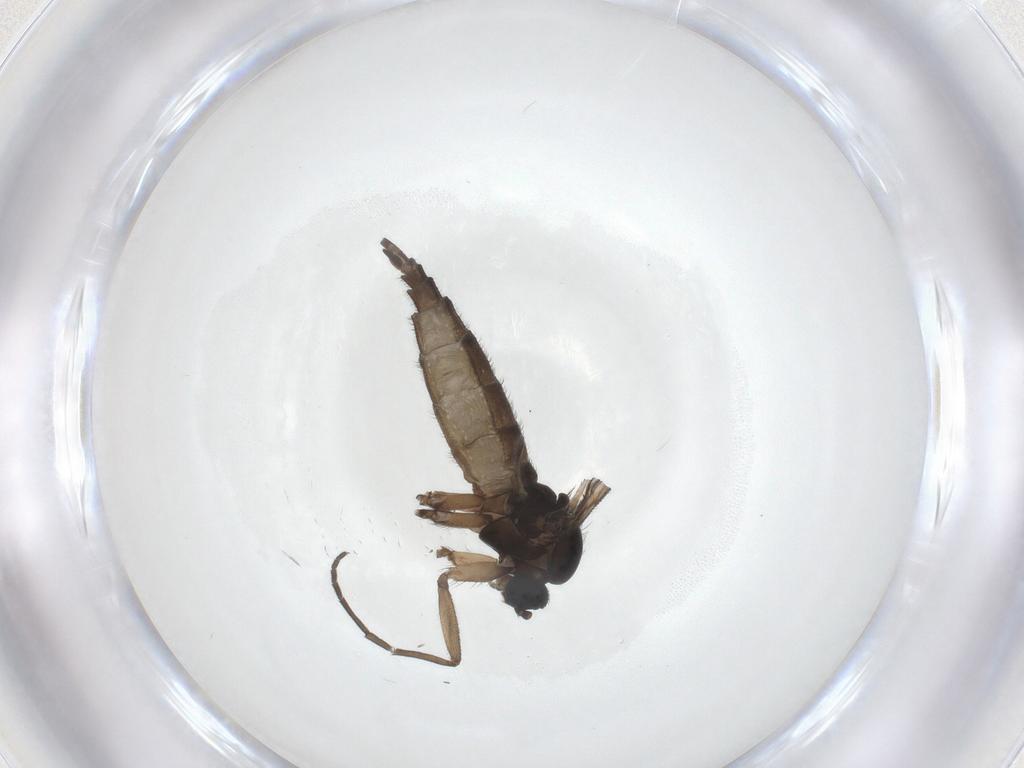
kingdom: Animalia
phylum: Arthropoda
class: Insecta
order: Diptera
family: Sciaridae
